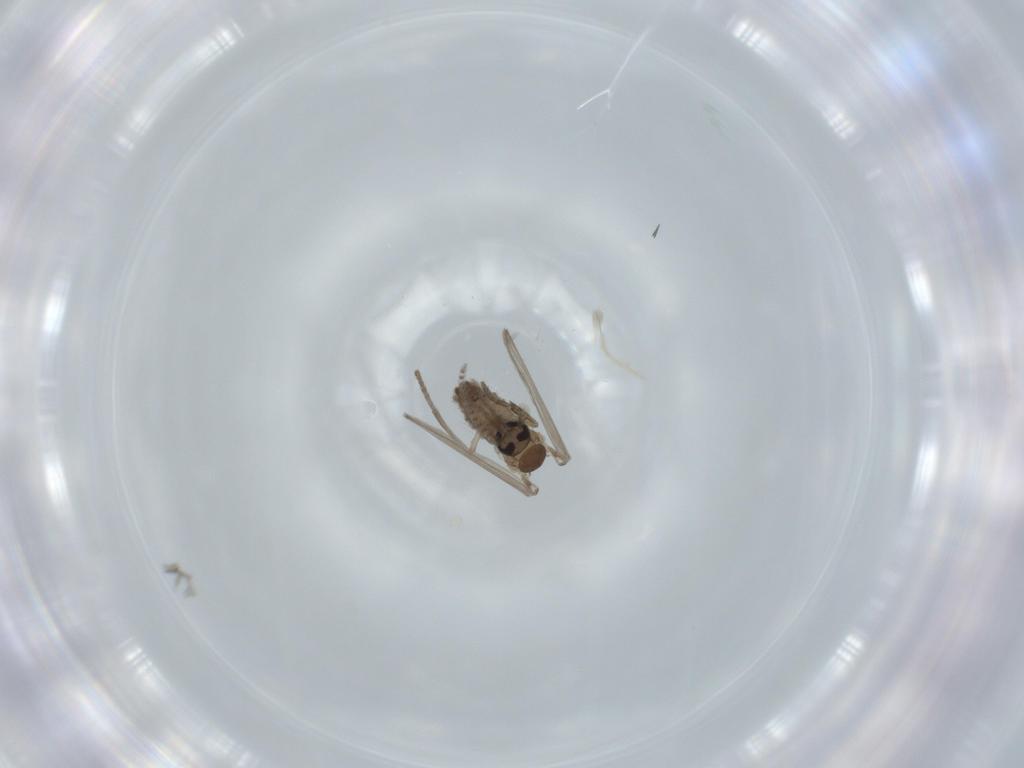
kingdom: Animalia
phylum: Arthropoda
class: Insecta
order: Diptera
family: Psychodidae
